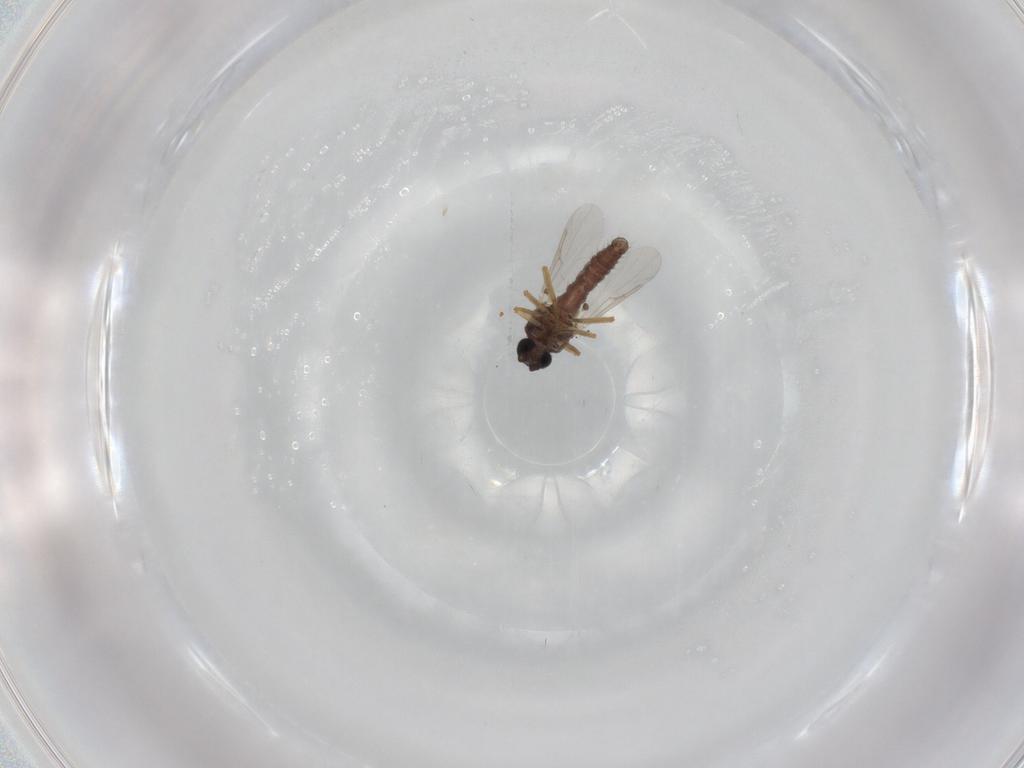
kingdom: Animalia
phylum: Arthropoda
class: Insecta
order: Diptera
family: Ceratopogonidae
